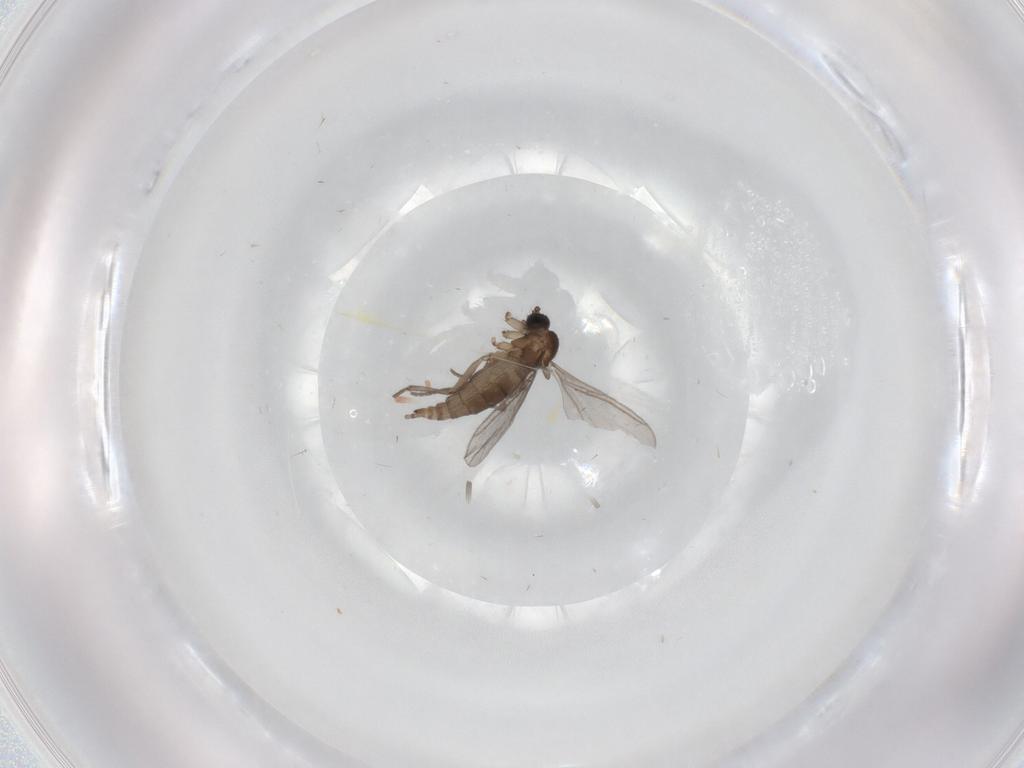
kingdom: Animalia
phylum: Arthropoda
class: Insecta
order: Diptera
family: Sciaridae
